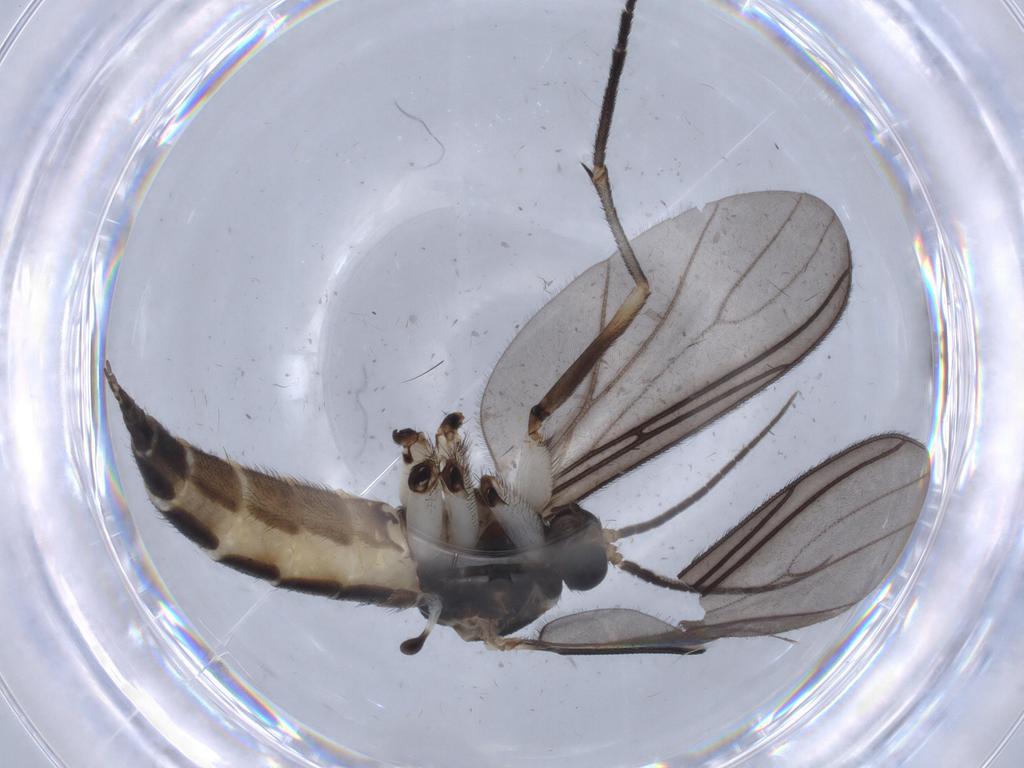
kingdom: Animalia
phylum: Arthropoda
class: Insecta
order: Diptera
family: Sciaridae
